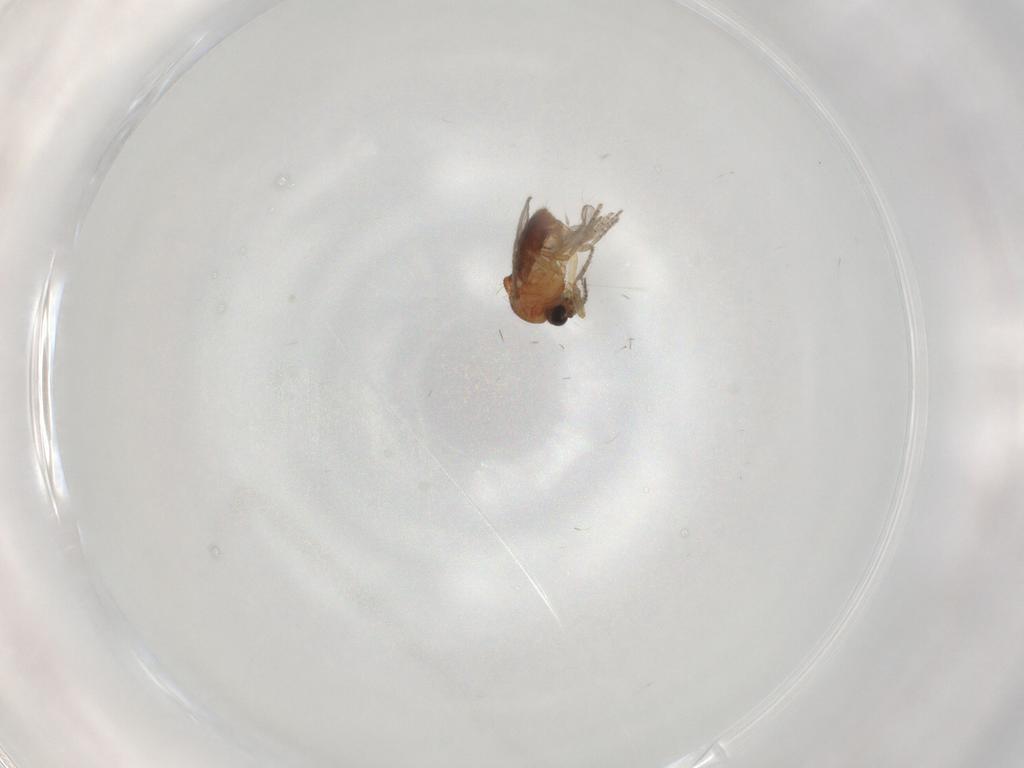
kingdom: Animalia
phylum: Arthropoda
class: Insecta
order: Diptera
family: Ceratopogonidae
